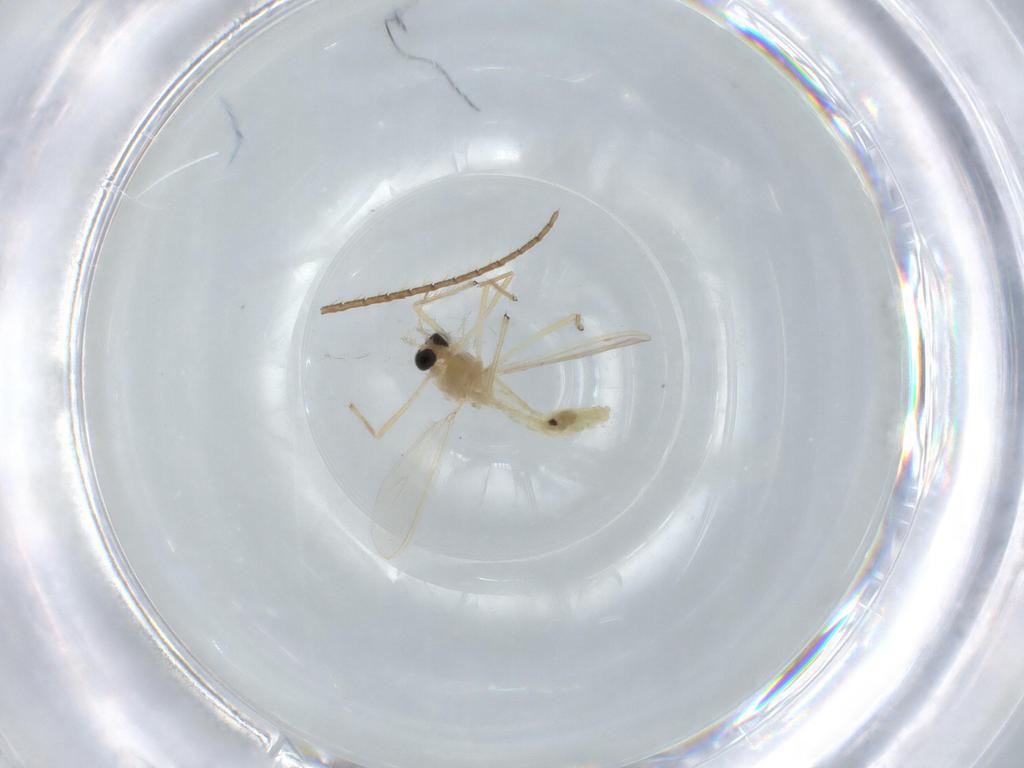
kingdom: Animalia
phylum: Arthropoda
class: Insecta
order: Diptera
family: Chironomidae
